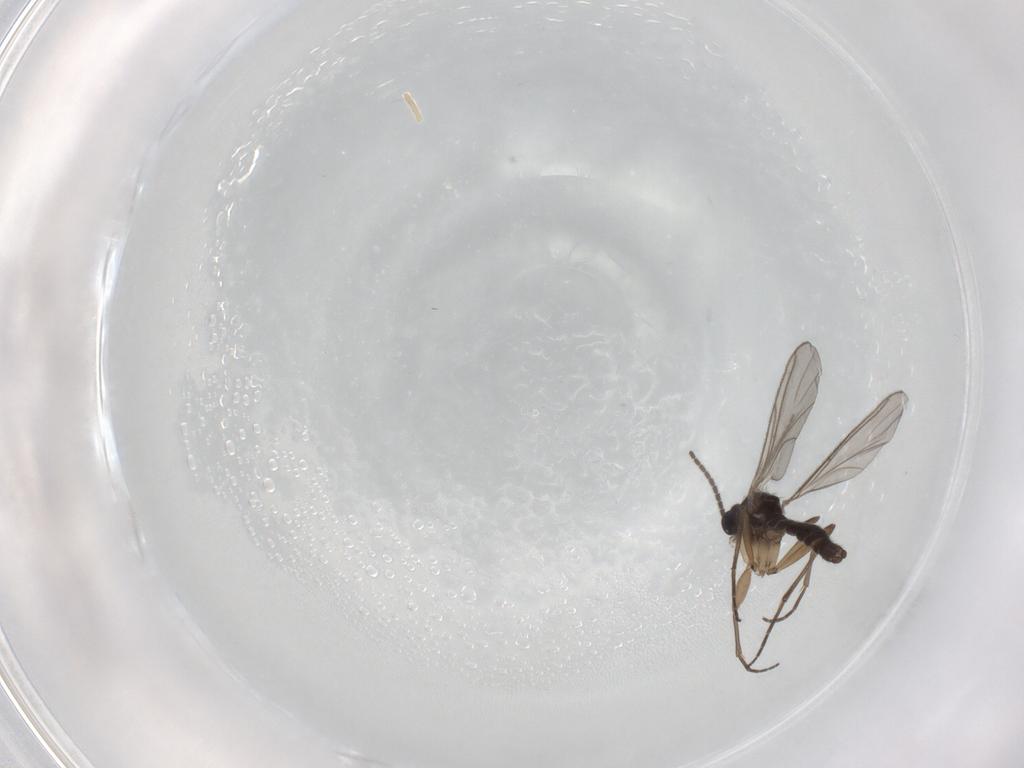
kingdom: Animalia
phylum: Arthropoda
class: Insecta
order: Diptera
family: Sciaridae
